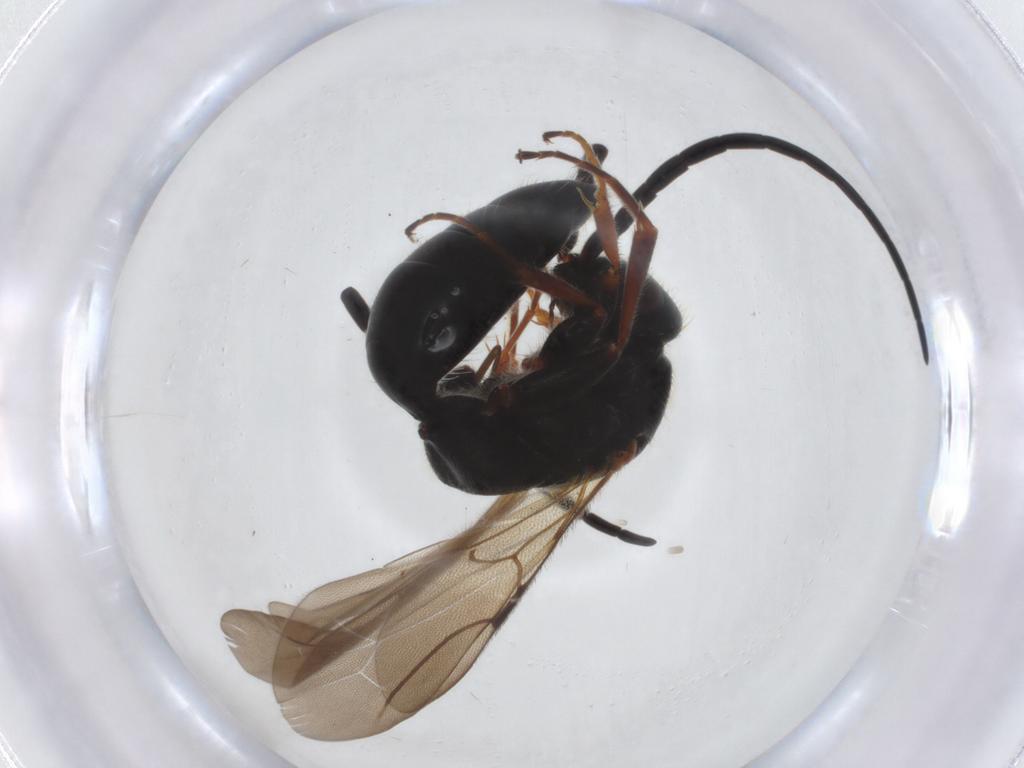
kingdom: Animalia
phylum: Arthropoda
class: Insecta
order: Hymenoptera
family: Bethylidae
